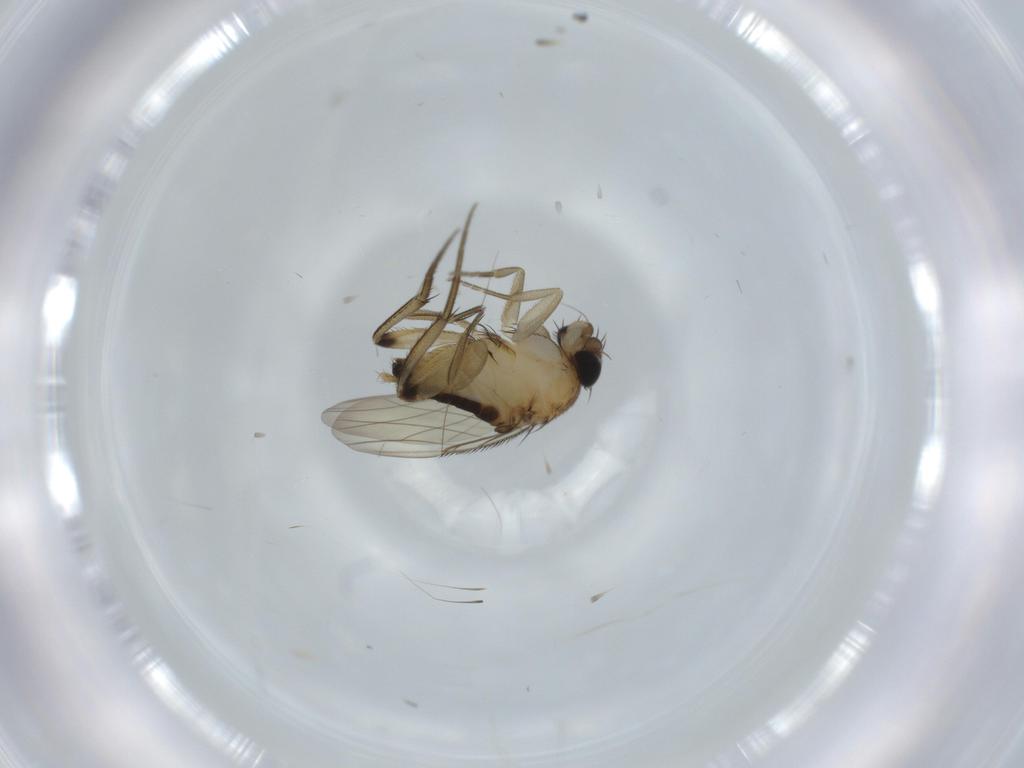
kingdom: Animalia
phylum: Arthropoda
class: Insecta
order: Diptera
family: Phoridae
